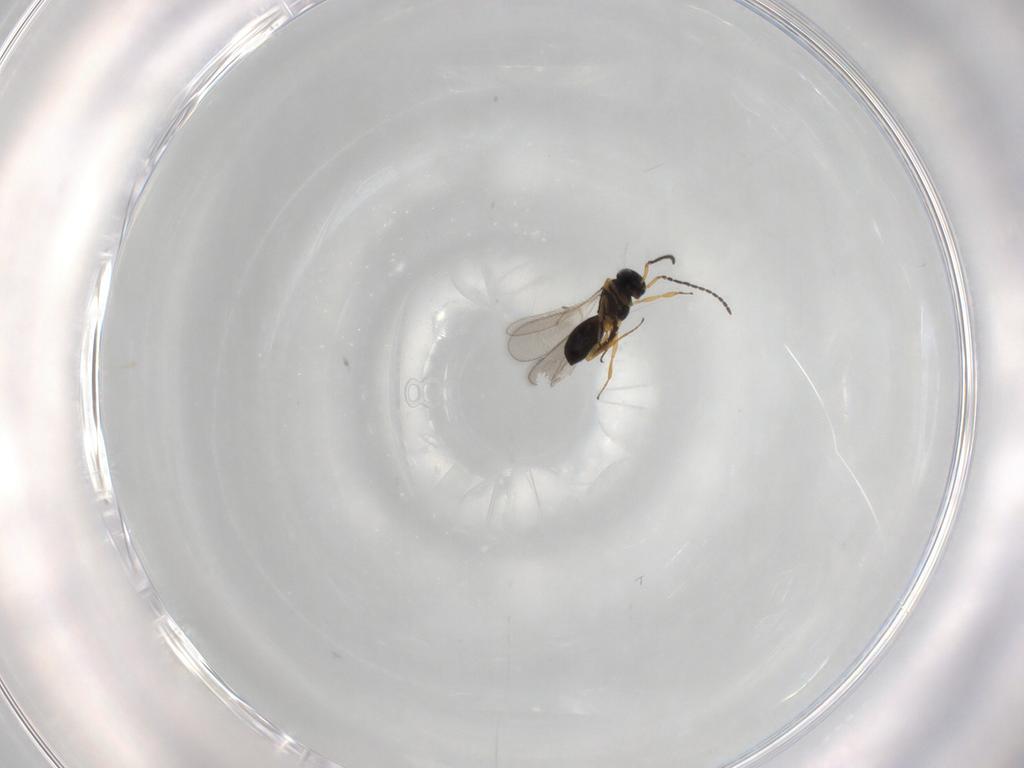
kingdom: Animalia
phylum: Arthropoda
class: Insecta
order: Hymenoptera
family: Scelionidae
